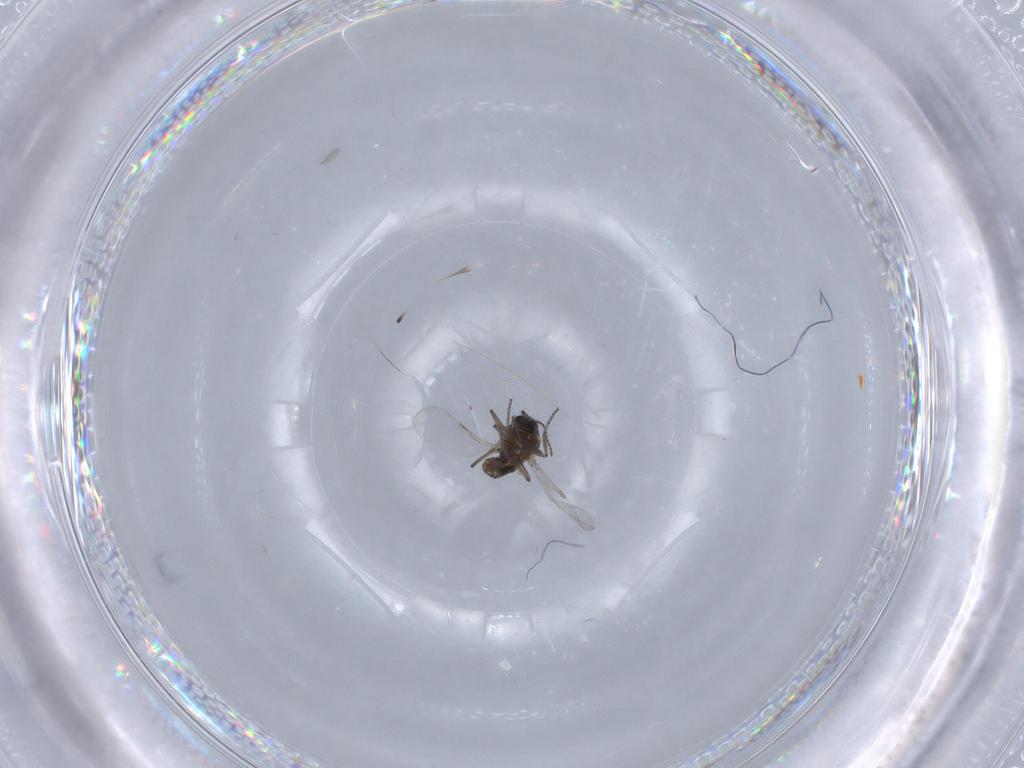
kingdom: Animalia
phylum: Arthropoda
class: Insecta
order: Diptera
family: Ceratopogonidae
